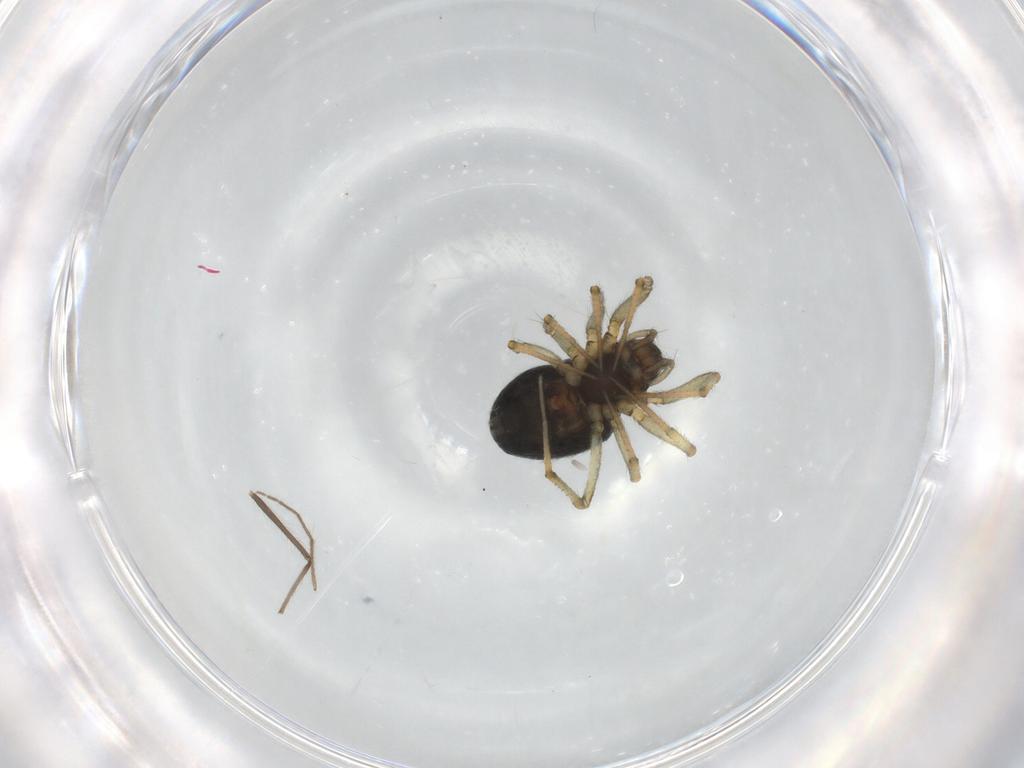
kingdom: Animalia
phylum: Arthropoda
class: Arachnida
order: Araneae
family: Linyphiidae
